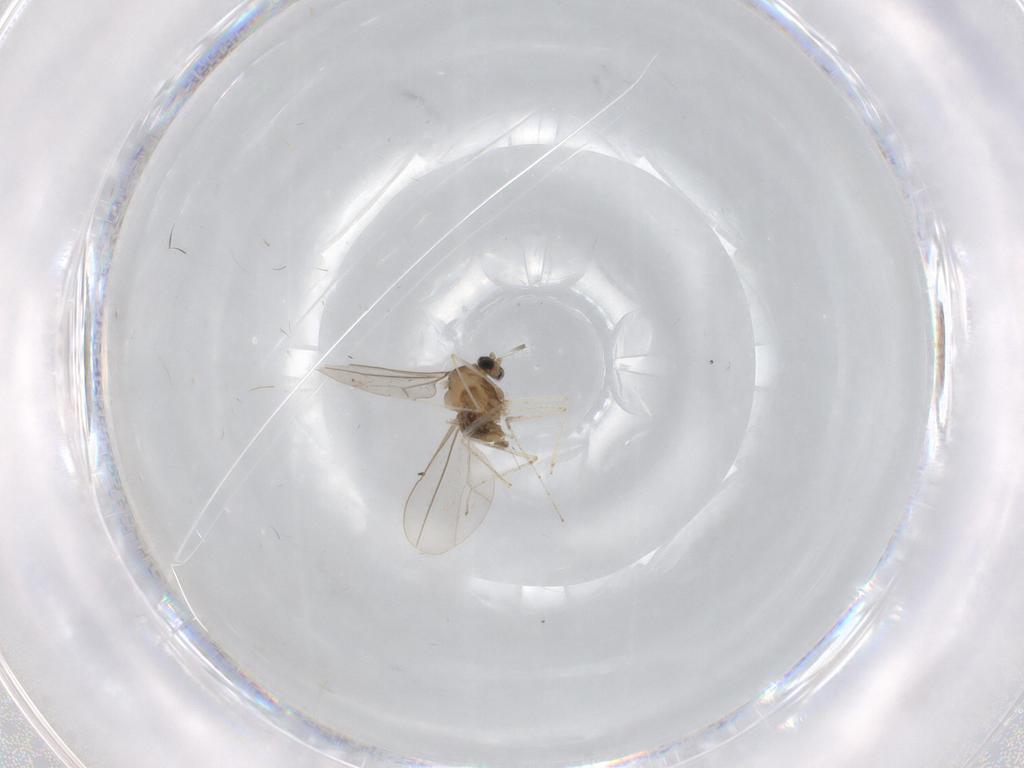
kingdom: Animalia
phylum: Arthropoda
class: Insecta
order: Diptera
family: Cecidomyiidae
